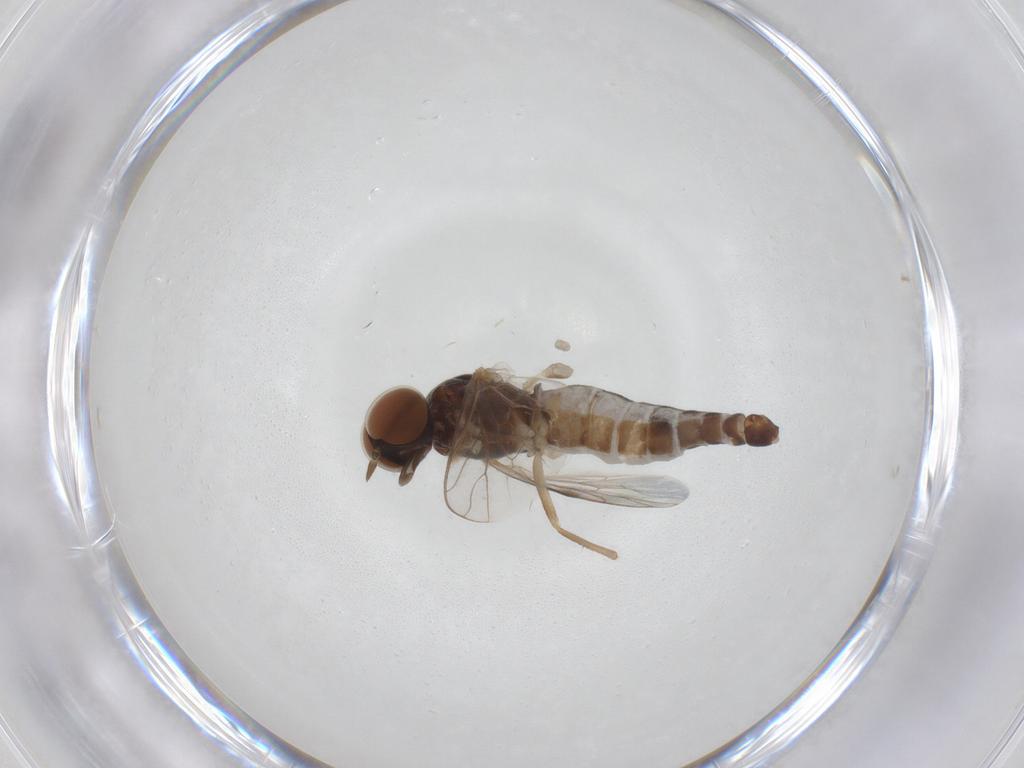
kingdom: Animalia
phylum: Arthropoda
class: Insecta
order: Diptera
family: Scenopinidae
